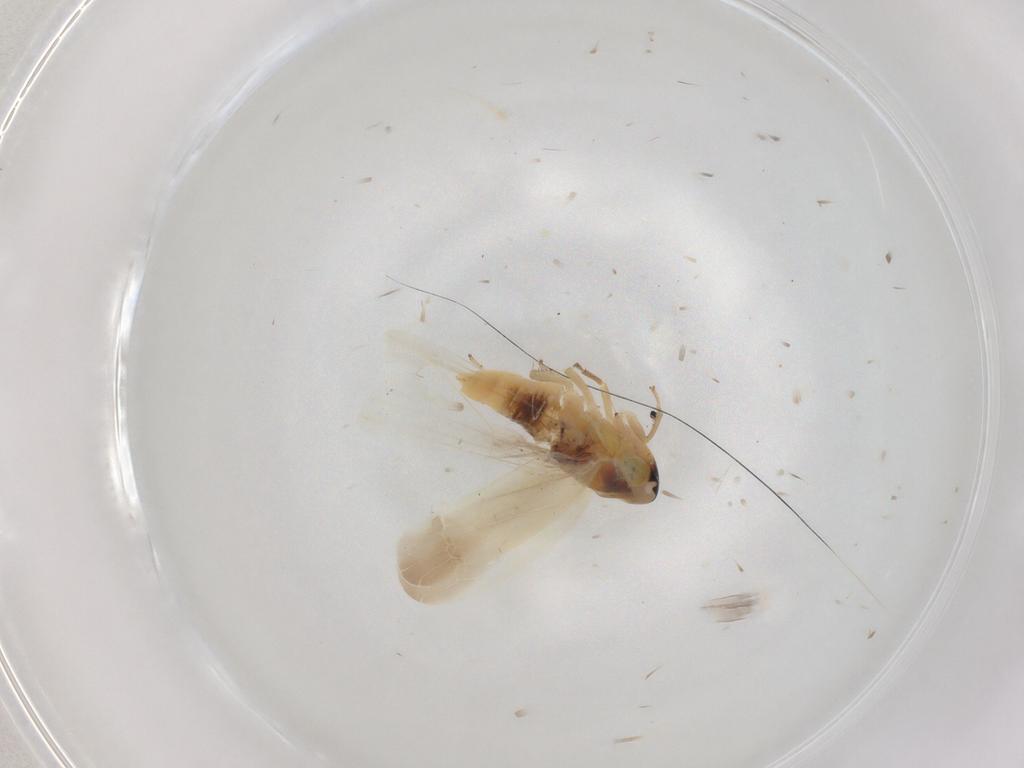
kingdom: Animalia
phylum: Arthropoda
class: Insecta
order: Hemiptera
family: Cicadellidae
